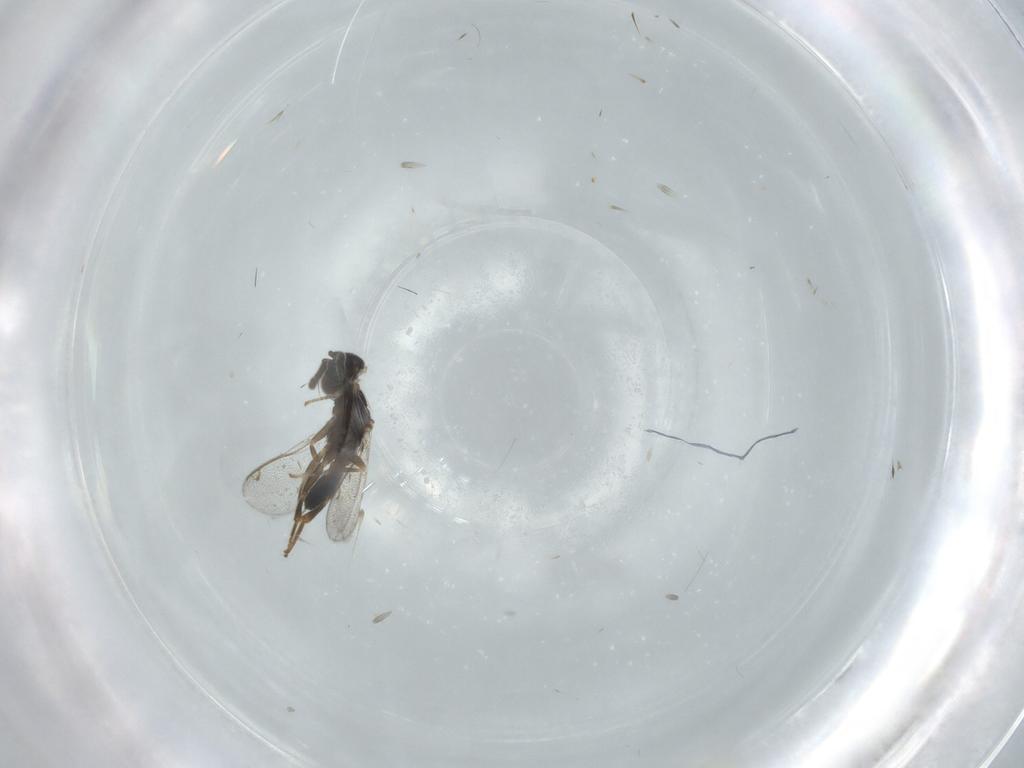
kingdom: Animalia
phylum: Arthropoda
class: Insecta
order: Hymenoptera
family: Cleonyminae
